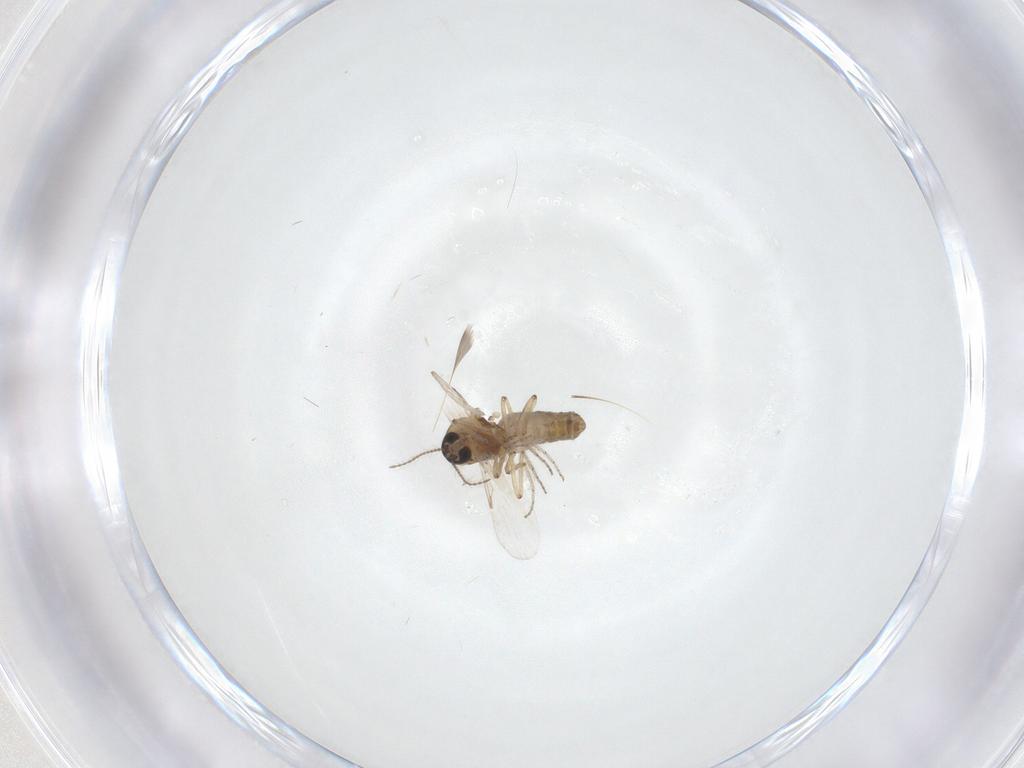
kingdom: Animalia
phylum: Arthropoda
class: Insecta
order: Diptera
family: Ceratopogonidae
